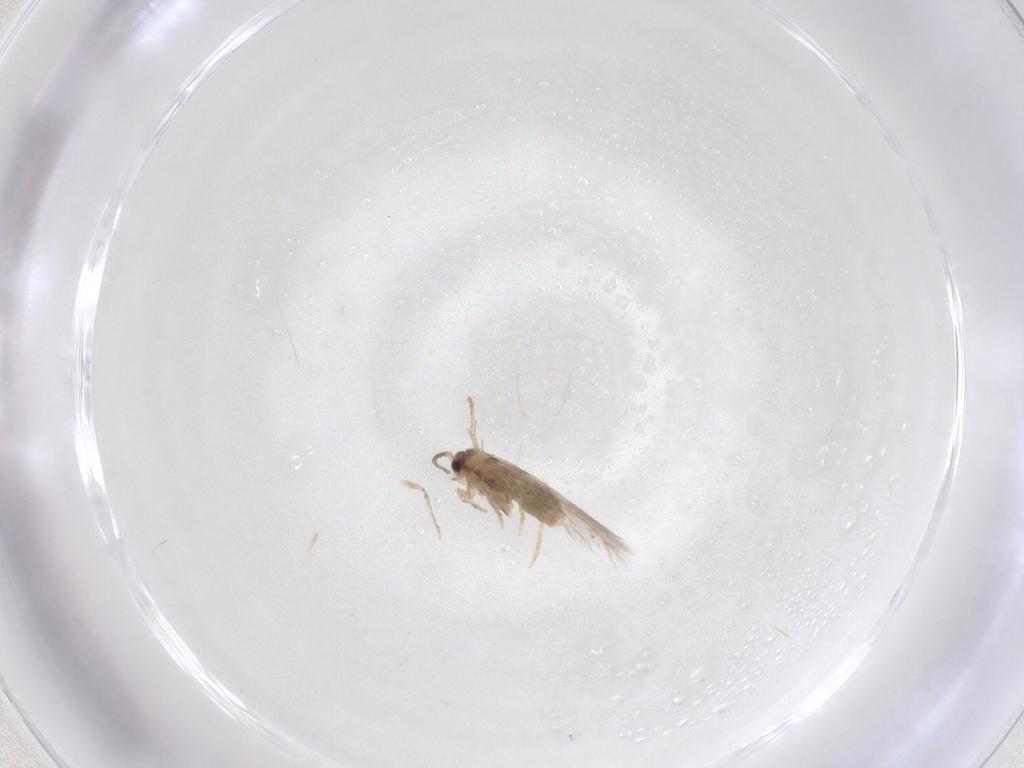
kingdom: Animalia
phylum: Arthropoda
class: Insecta
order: Lepidoptera
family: Nepticulidae
